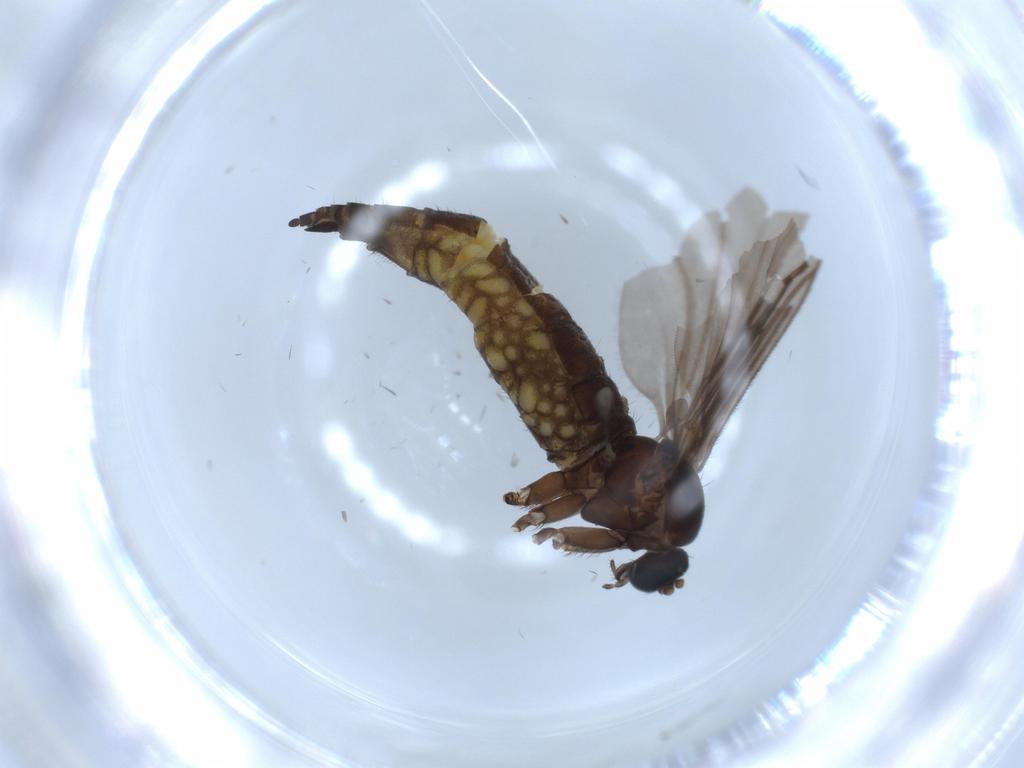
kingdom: Animalia
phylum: Arthropoda
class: Insecta
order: Diptera
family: Sciaridae
